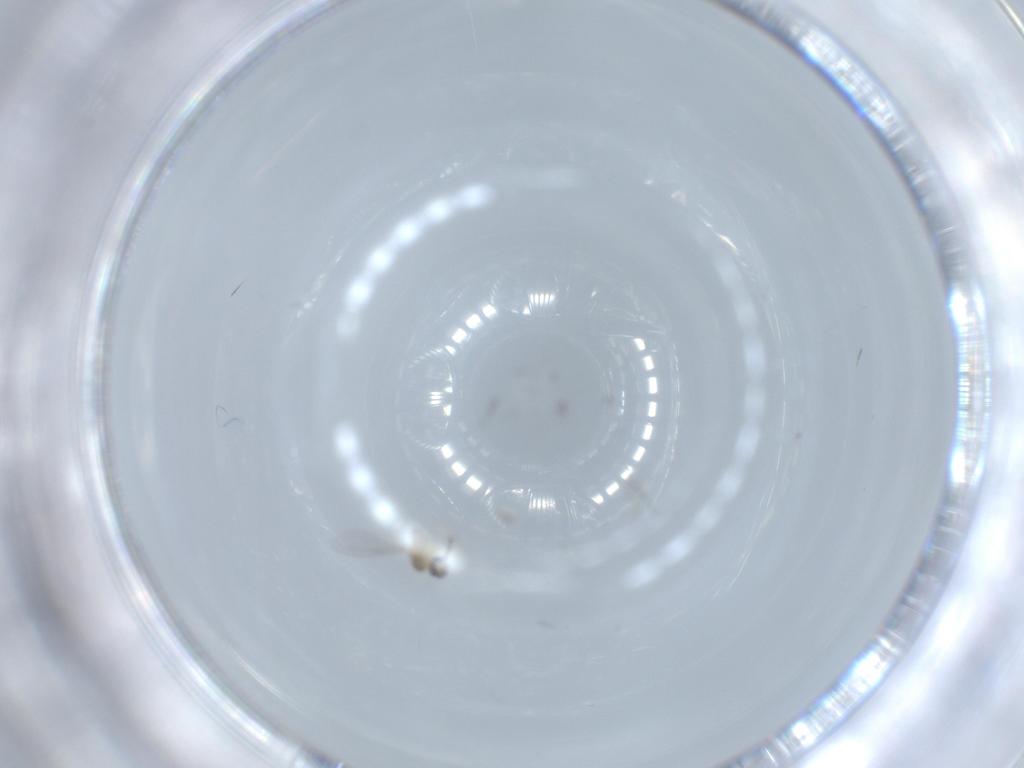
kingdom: Animalia
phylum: Arthropoda
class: Insecta
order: Diptera
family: Cecidomyiidae
